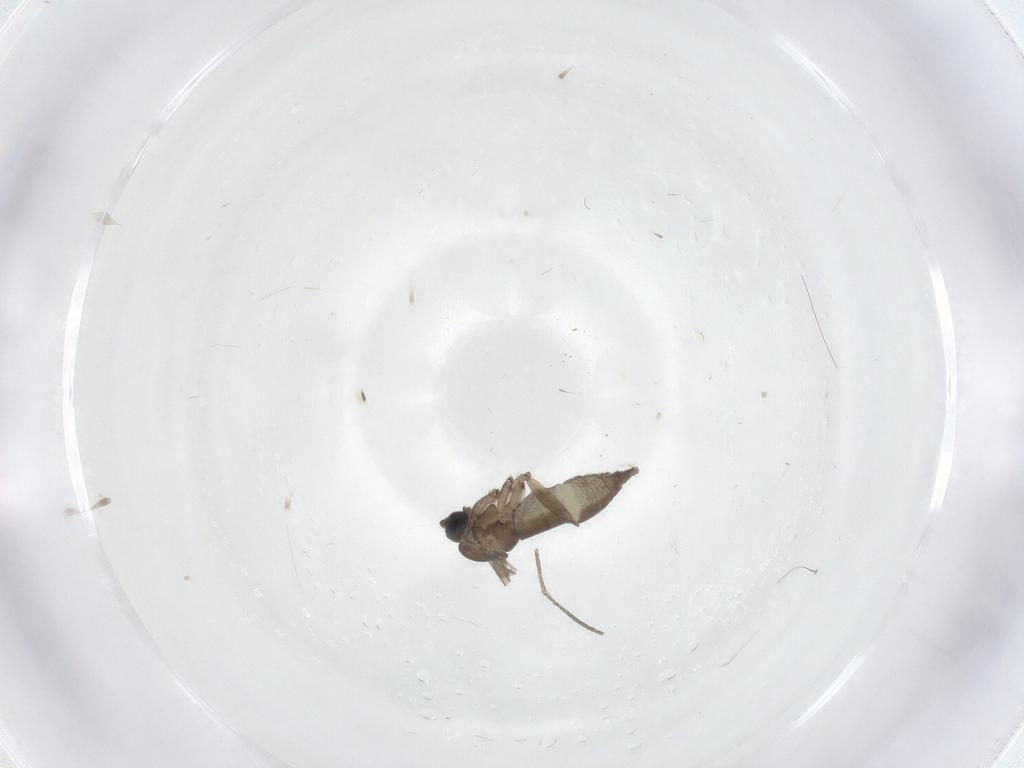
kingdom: Animalia
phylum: Arthropoda
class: Insecta
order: Diptera
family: Sciaridae
